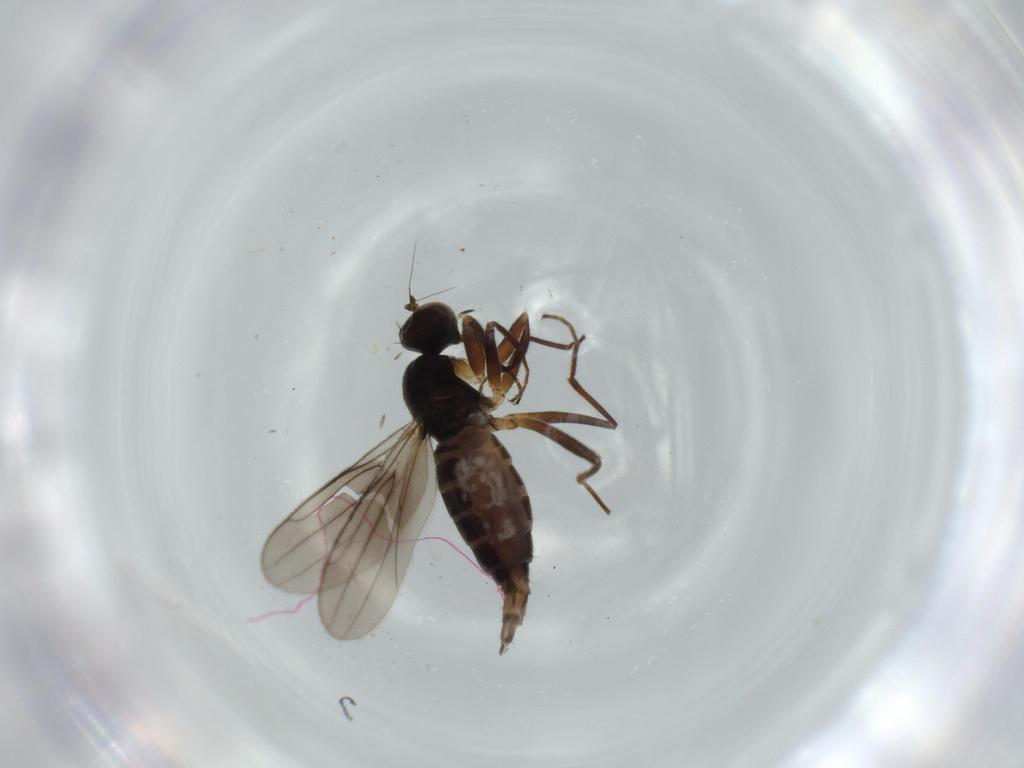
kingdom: Animalia
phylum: Arthropoda
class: Insecta
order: Diptera
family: Hybotidae
